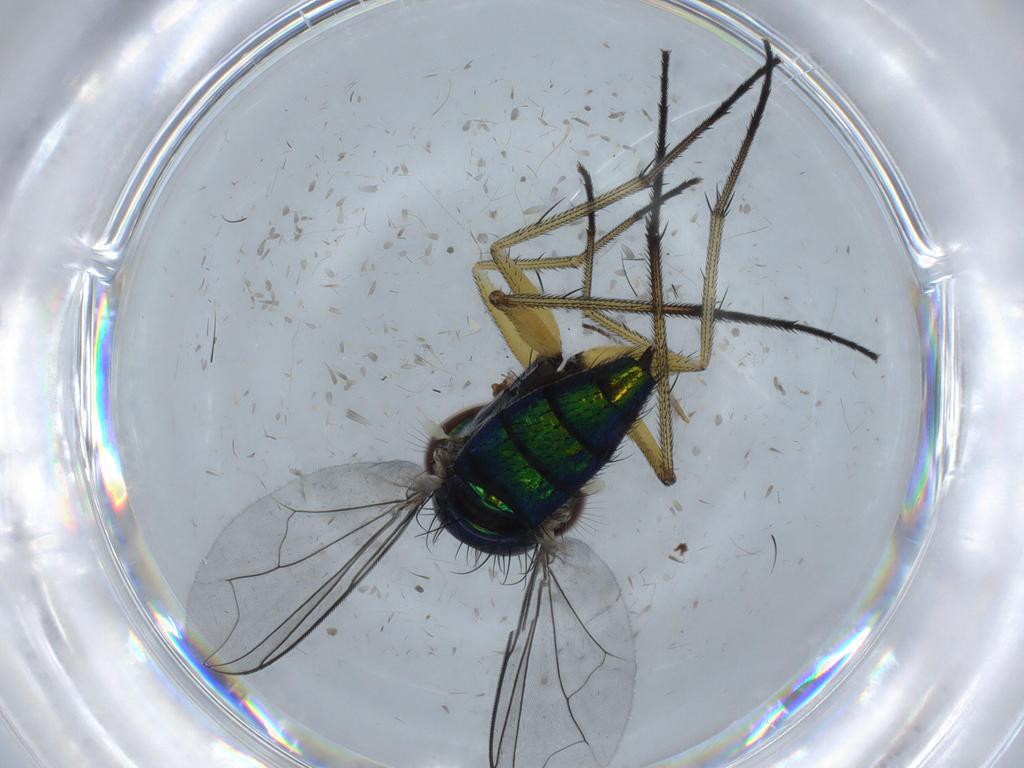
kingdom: Animalia
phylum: Arthropoda
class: Insecta
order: Diptera
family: Dolichopodidae
